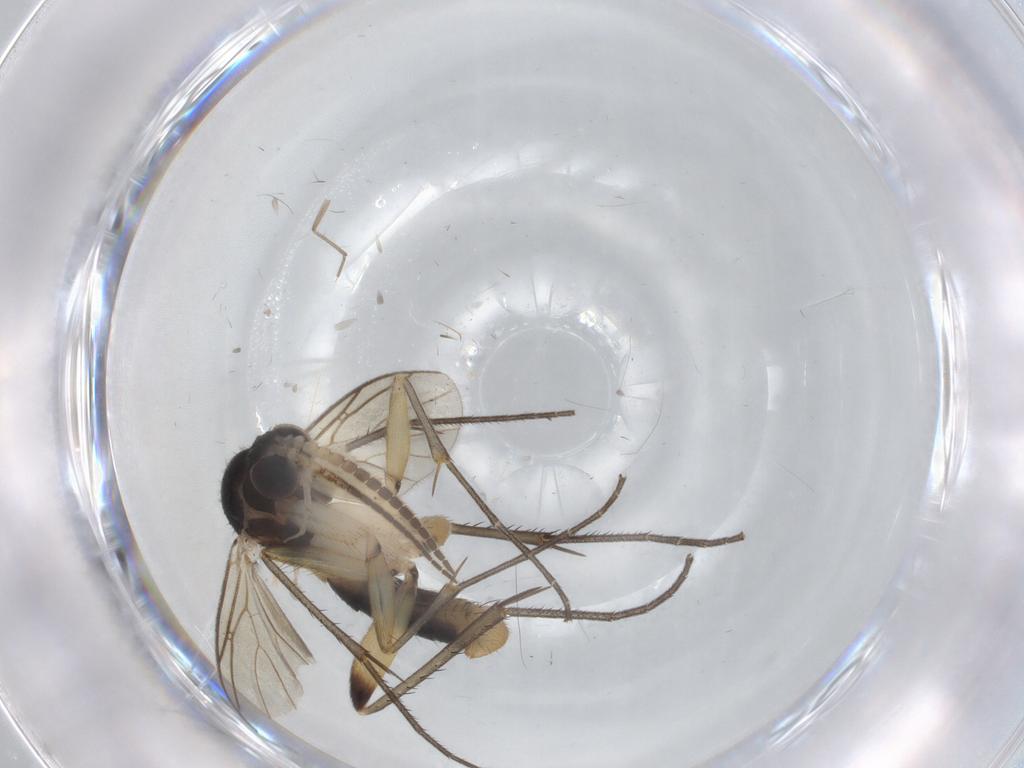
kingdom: Animalia
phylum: Arthropoda
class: Insecta
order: Diptera
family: Mycetophilidae
